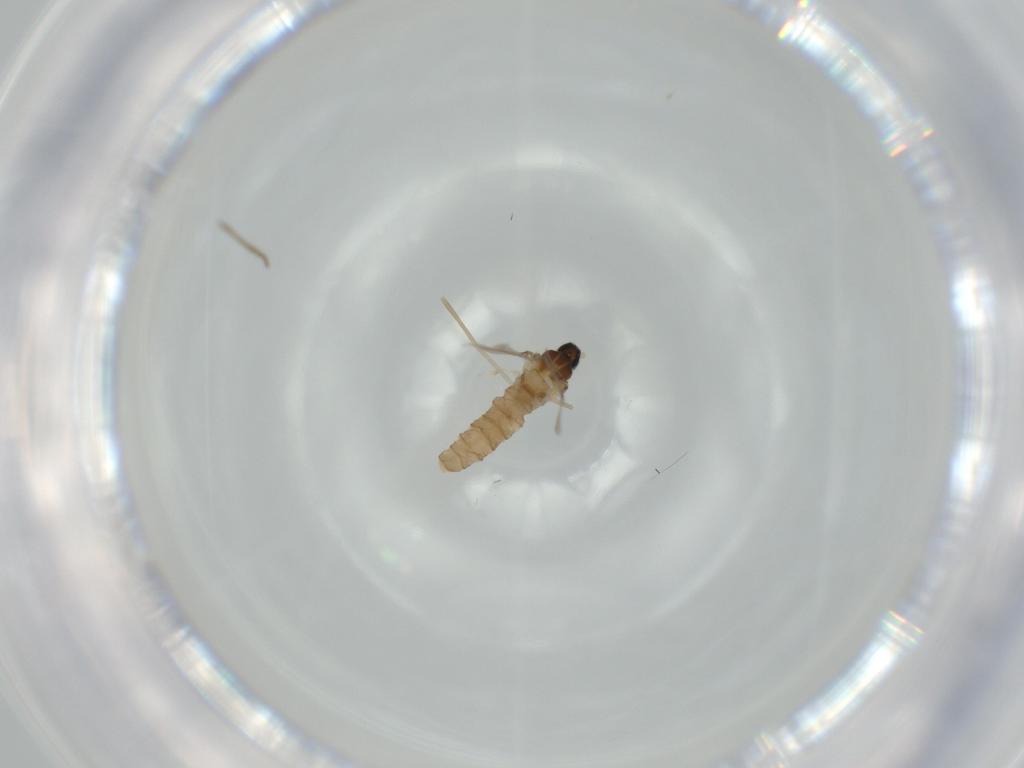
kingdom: Animalia
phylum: Arthropoda
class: Insecta
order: Diptera
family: Cecidomyiidae
